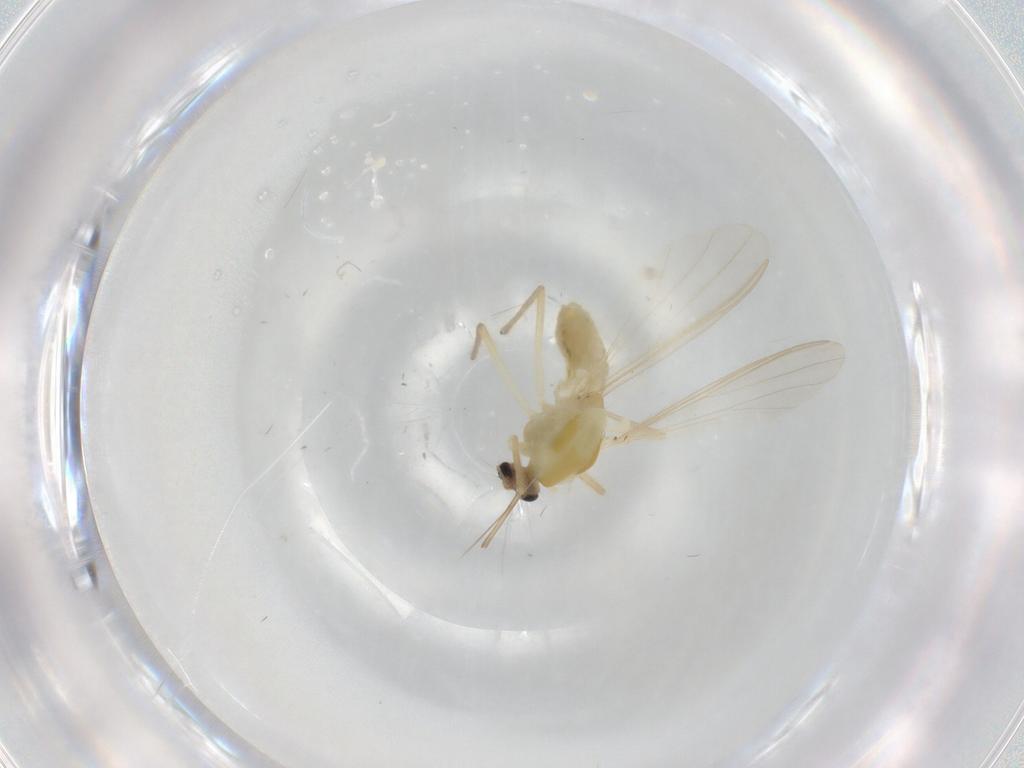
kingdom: Animalia
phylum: Arthropoda
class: Insecta
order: Diptera
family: Chironomidae
